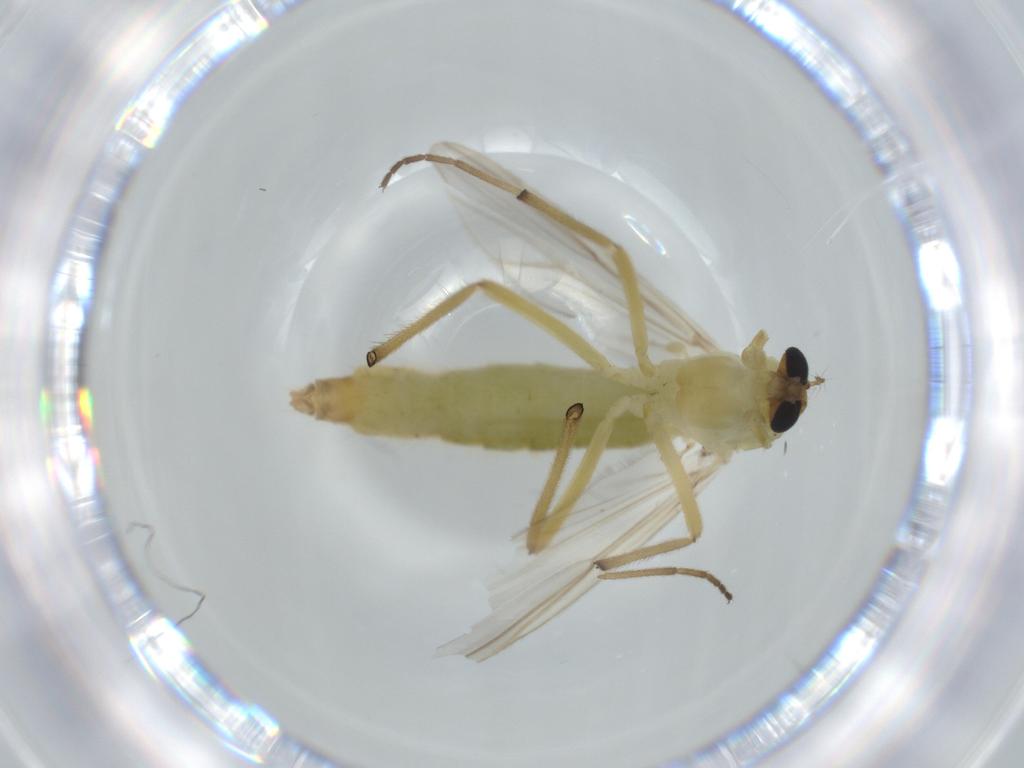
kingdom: Animalia
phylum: Arthropoda
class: Insecta
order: Diptera
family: Chironomidae
